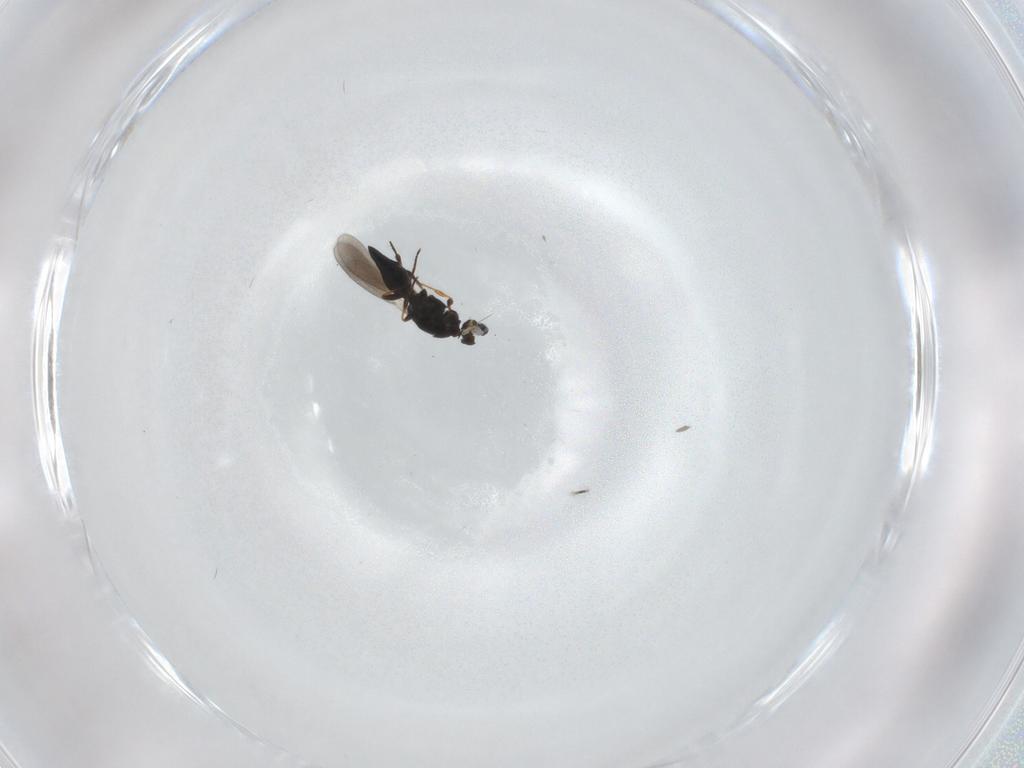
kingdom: Animalia
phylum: Arthropoda
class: Insecta
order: Hymenoptera
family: Platygastridae
